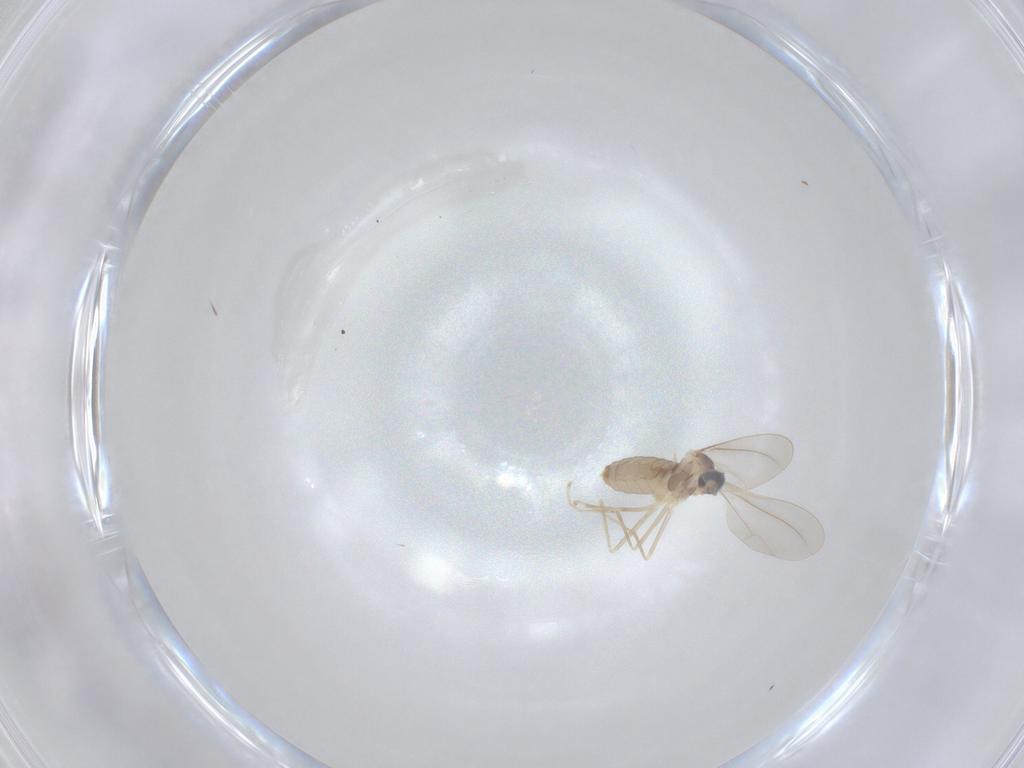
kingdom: Animalia
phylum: Arthropoda
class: Insecta
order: Diptera
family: Cecidomyiidae
